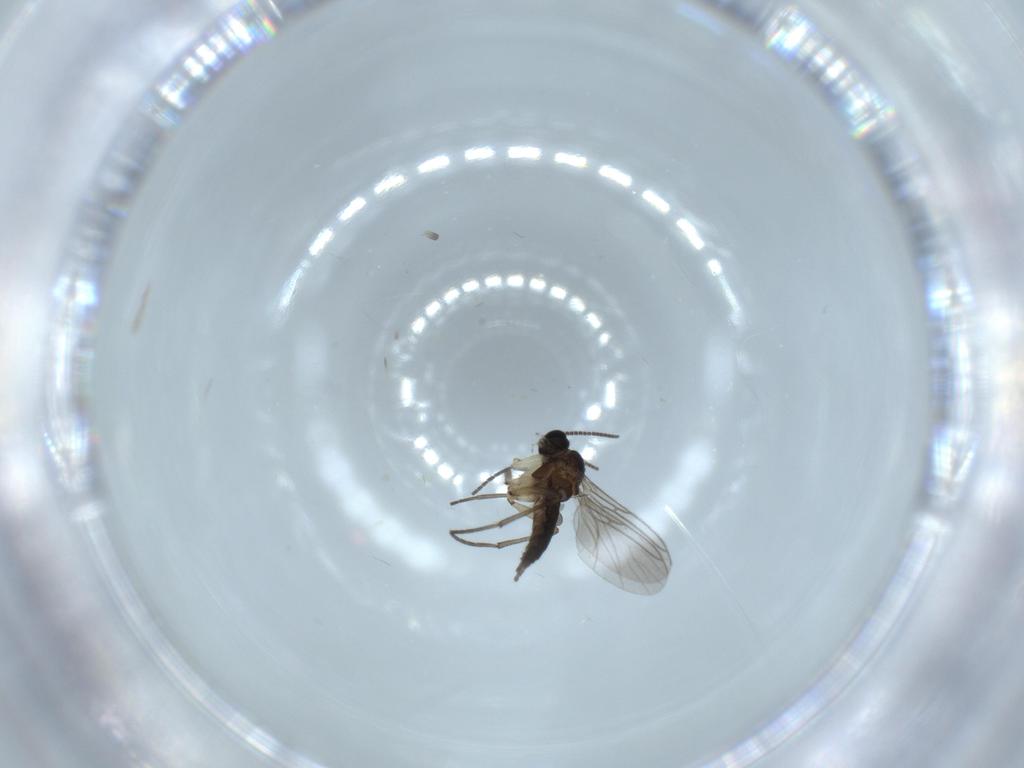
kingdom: Animalia
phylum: Arthropoda
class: Insecta
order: Diptera
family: Sciaridae
